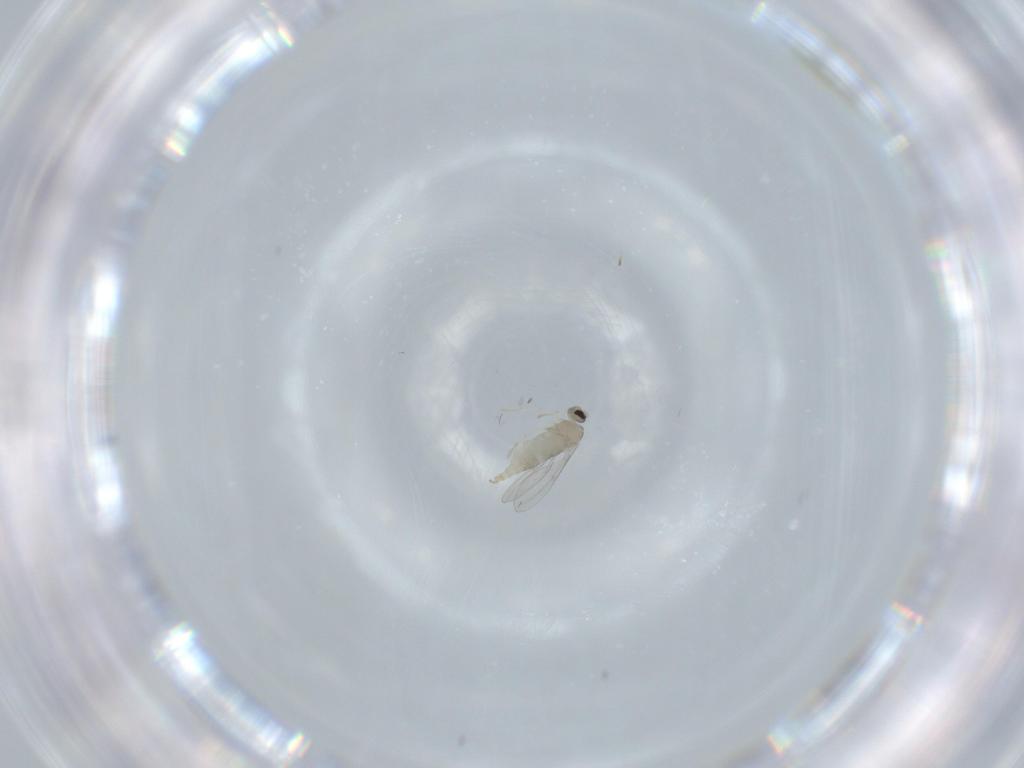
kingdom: Animalia
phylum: Arthropoda
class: Insecta
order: Diptera
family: Cecidomyiidae
